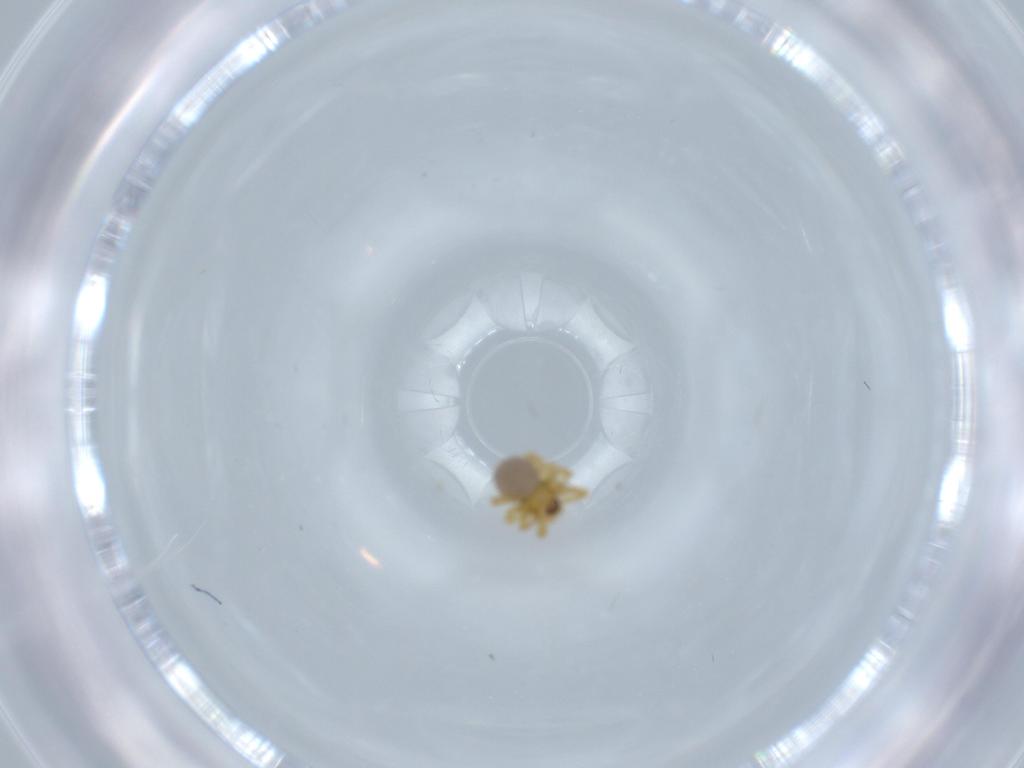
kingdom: Animalia
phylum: Arthropoda
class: Arachnida
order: Araneae
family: Theridiidae
